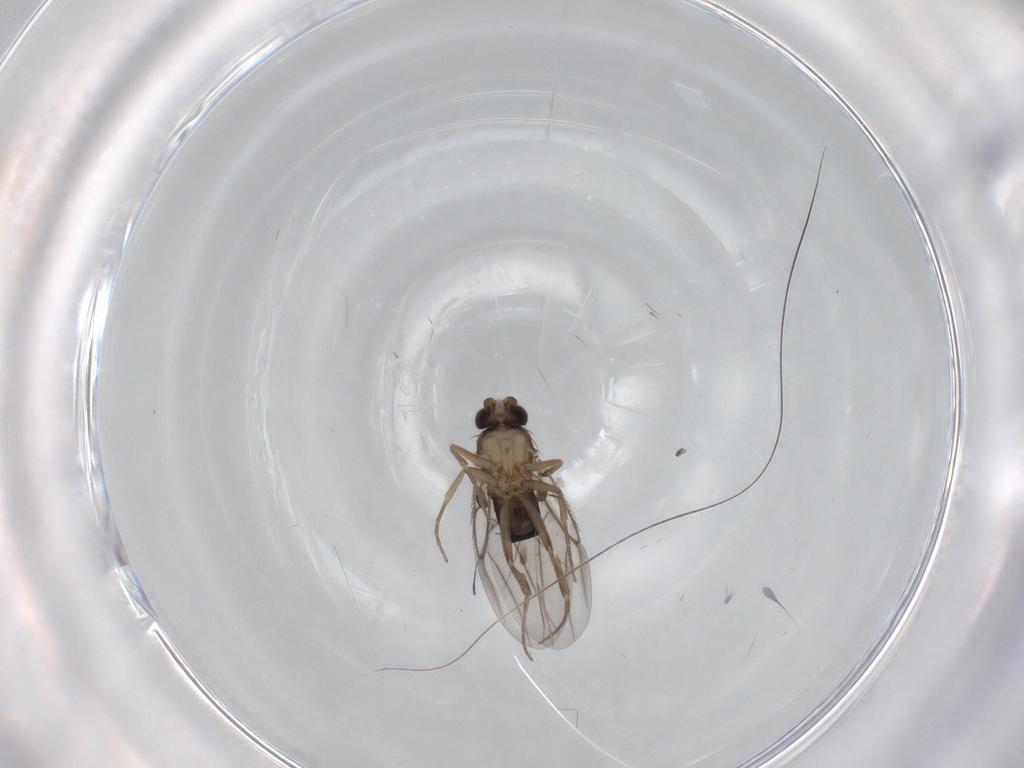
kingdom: Animalia
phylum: Arthropoda
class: Insecta
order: Diptera
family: Phoridae
